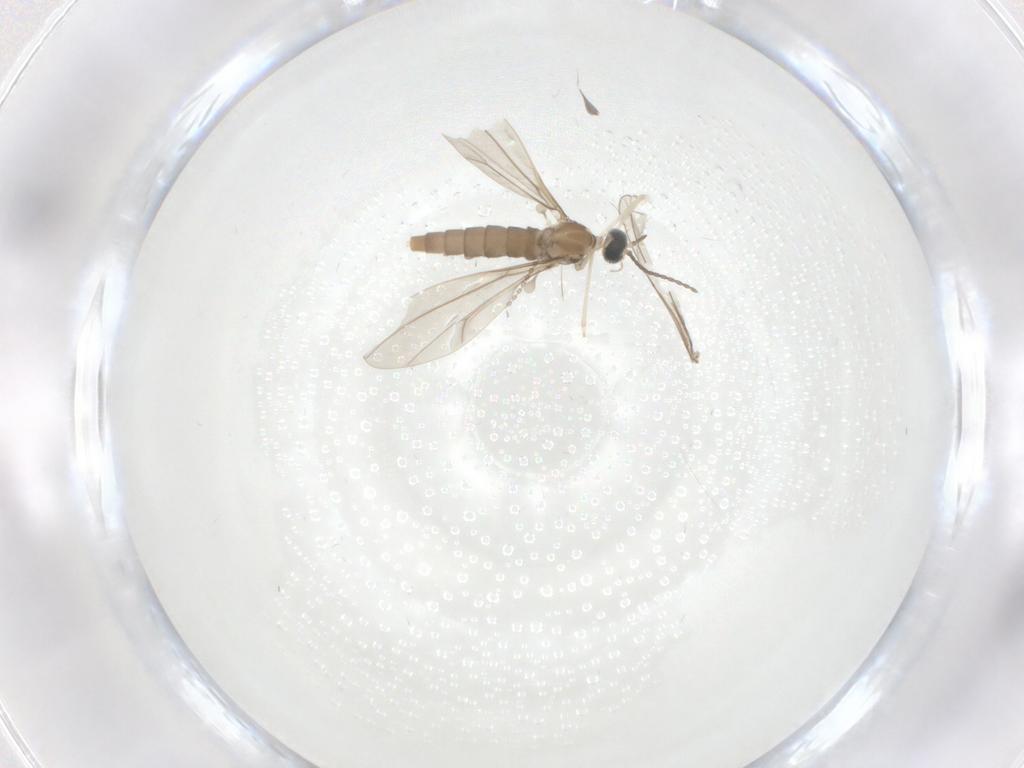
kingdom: Animalia
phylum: Arthropoda
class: Insecta
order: Diptera
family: Cecidomyiidae
